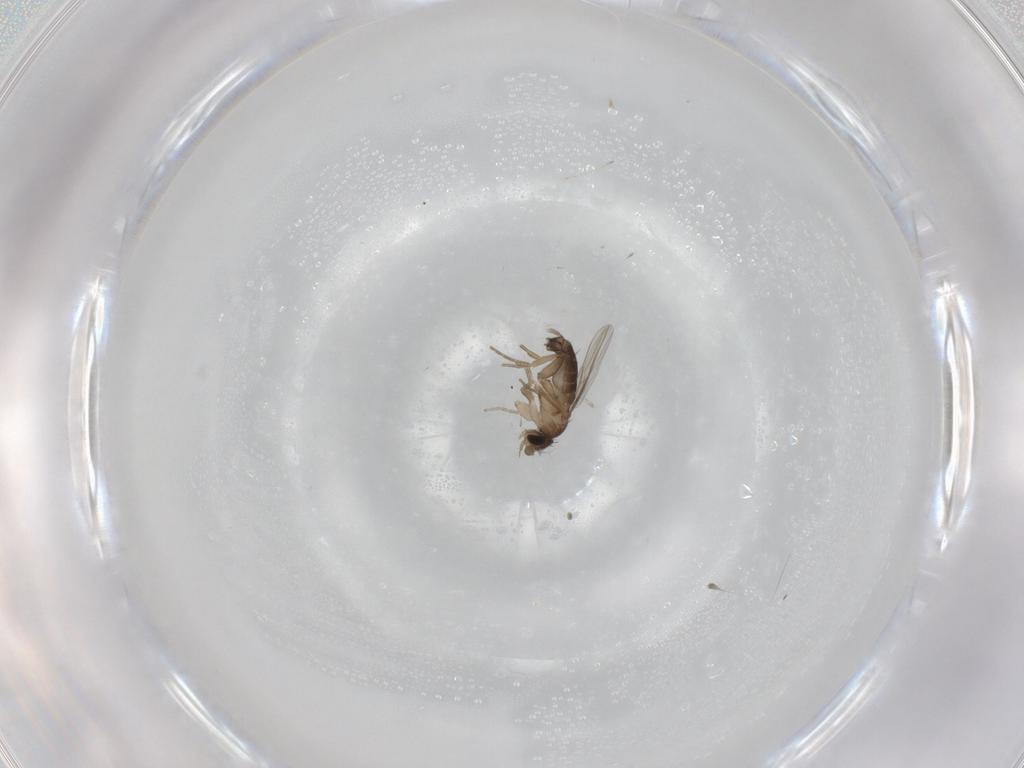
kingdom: Animalia
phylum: Arthropoda
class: Insecta
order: Diptera
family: Phoridae
